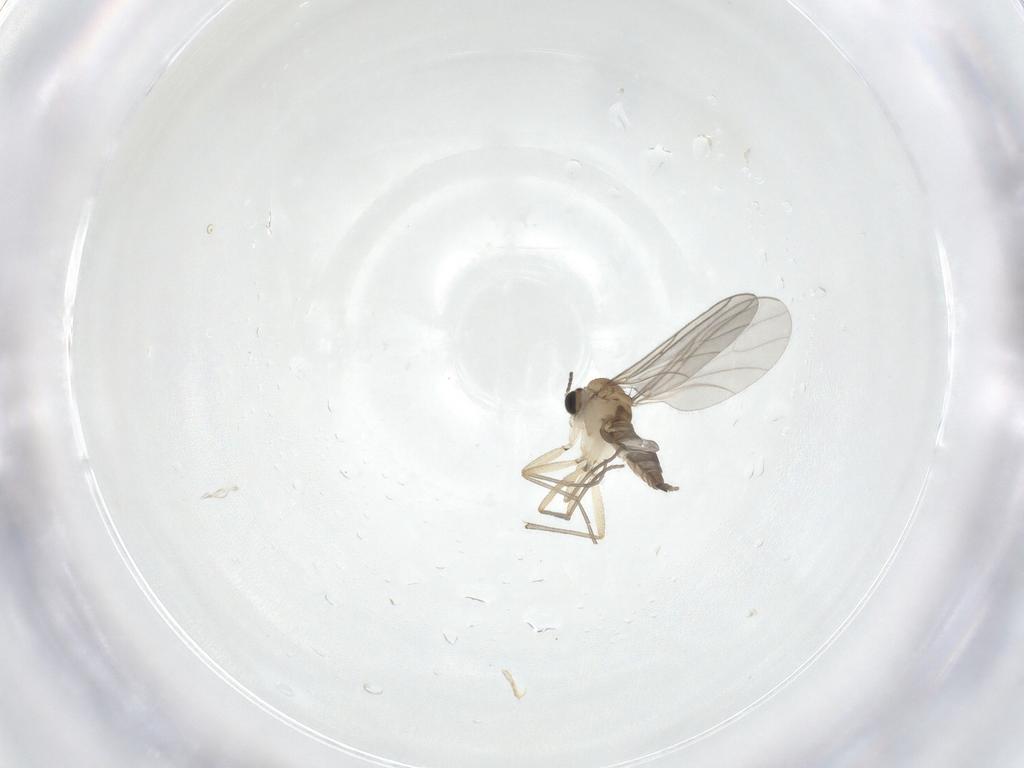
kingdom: Animalia
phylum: Arthropoda
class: Insecta
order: Diptera
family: Sciaridae
